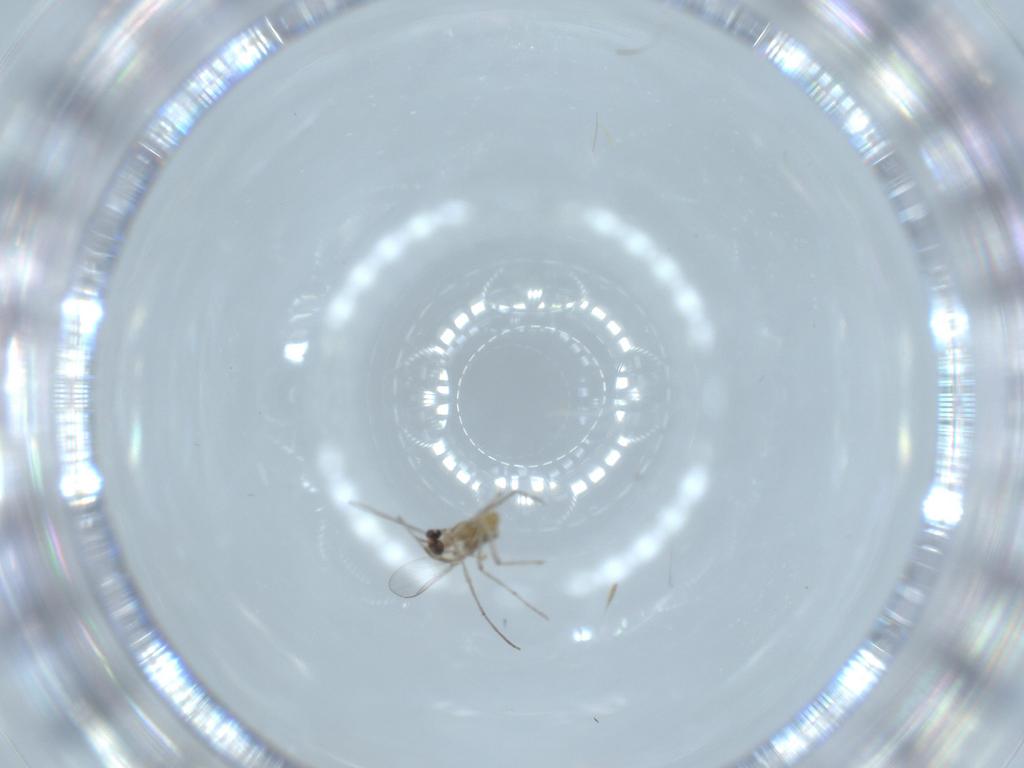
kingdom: Animalia
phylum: Arthropoda
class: Insecta
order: Diptera
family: Chironomidae
